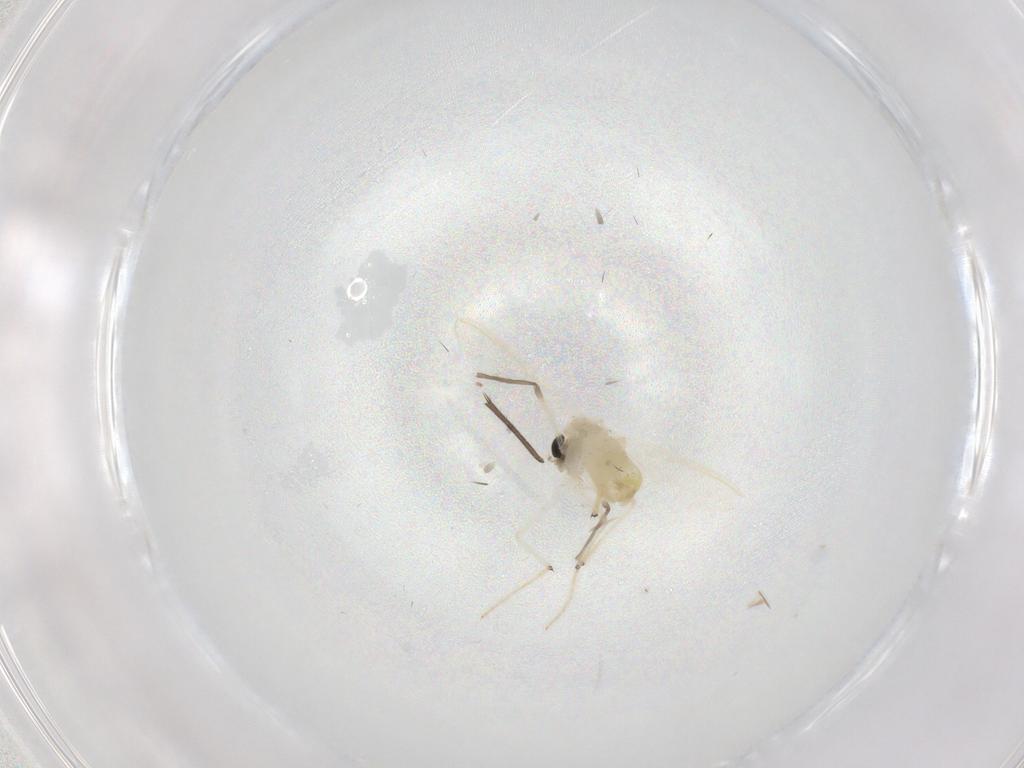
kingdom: Animalia
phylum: Arthropoda
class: Insecta
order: Diptera
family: Chironomidae
